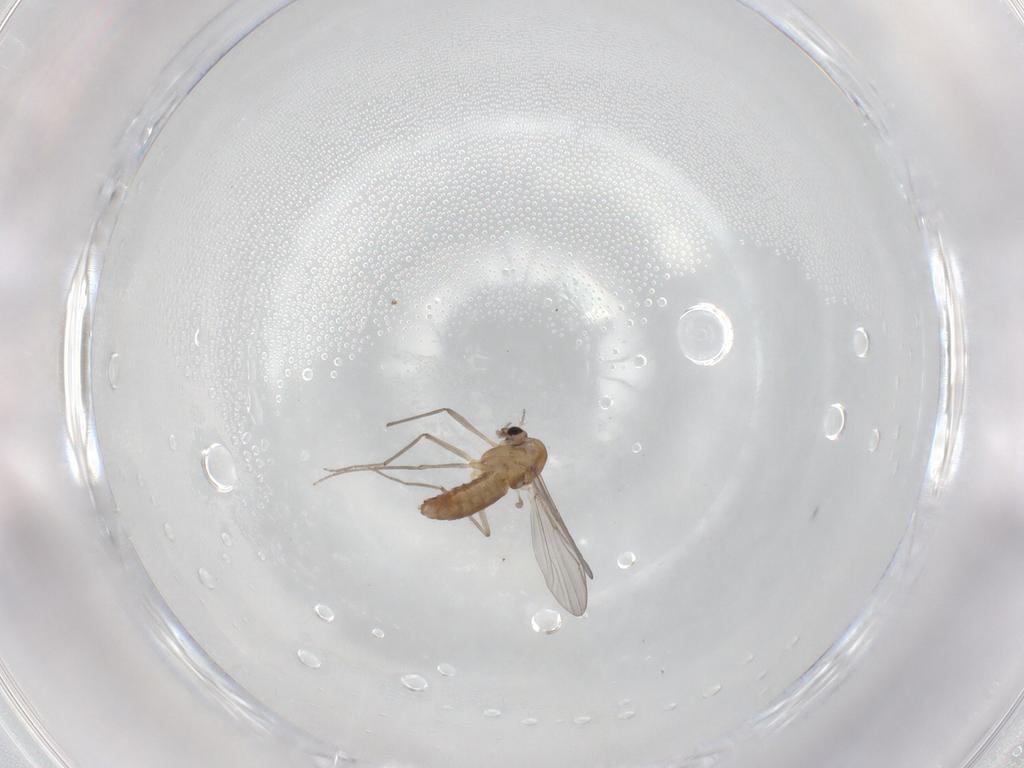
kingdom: Animalia
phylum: Arthropoda
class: Insecta
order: Diptera
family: Chironomidae
